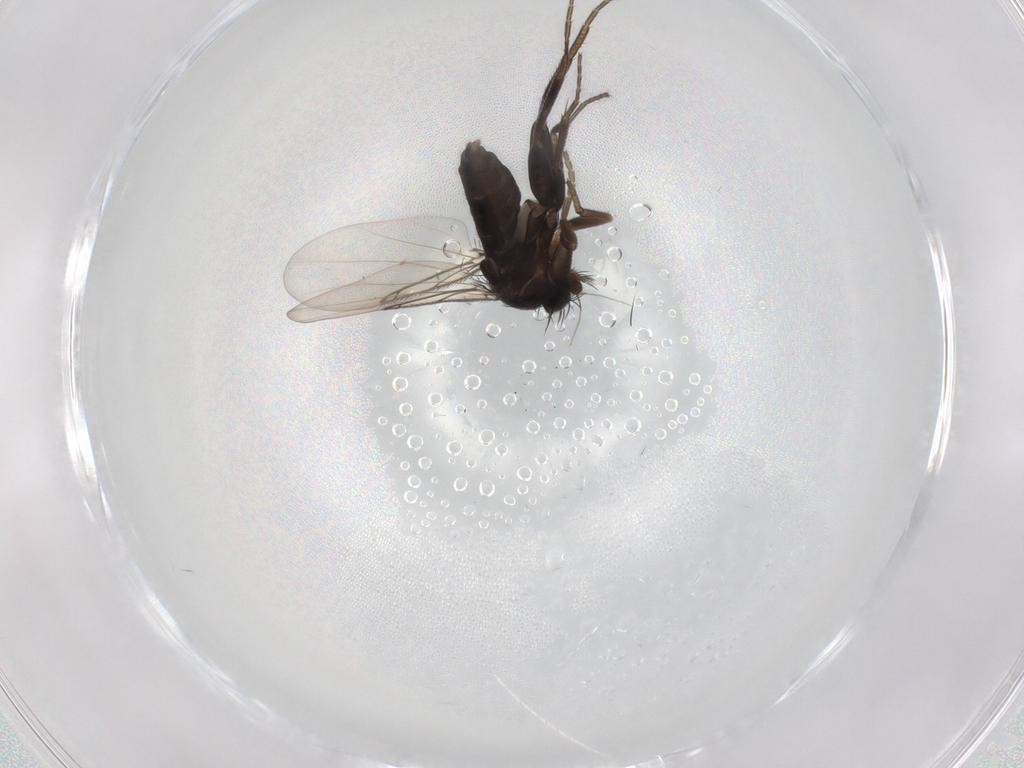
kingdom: Animalia
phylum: Arthropoda
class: Insecta
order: Diptera
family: Phoridae
